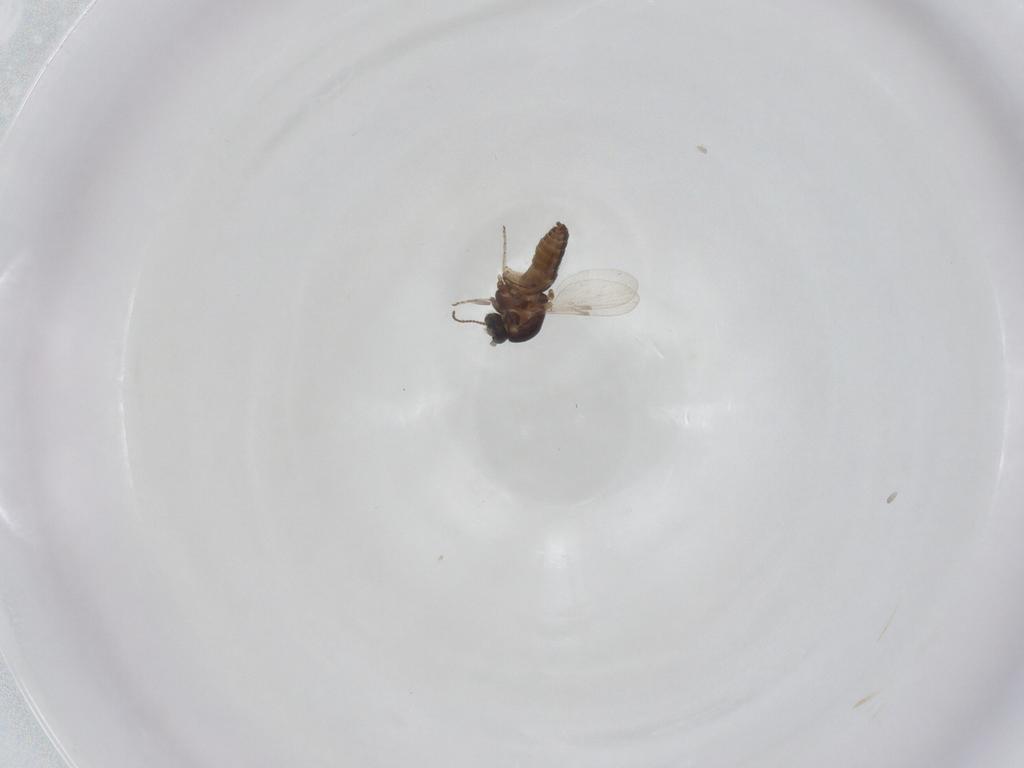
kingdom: Animalia
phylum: Arthropoda
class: Insecta
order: Diptera
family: Ceratopogonidae
